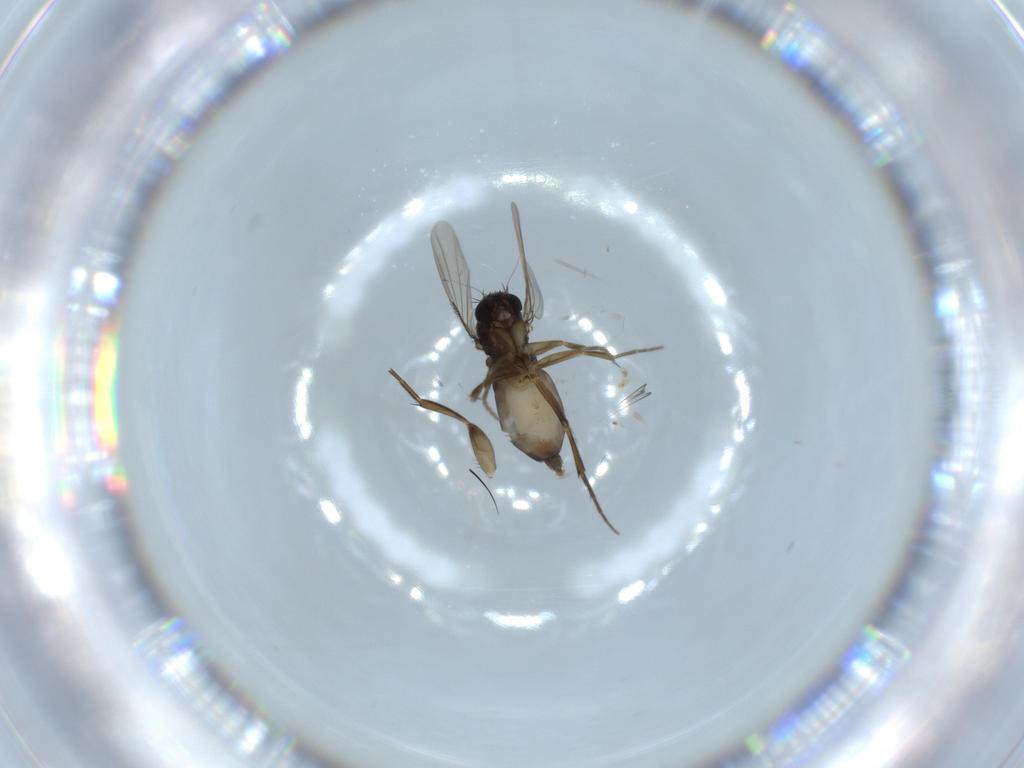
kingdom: Animalia
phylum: Arthropoda
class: Insecta
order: Diptera
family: Phoridae
